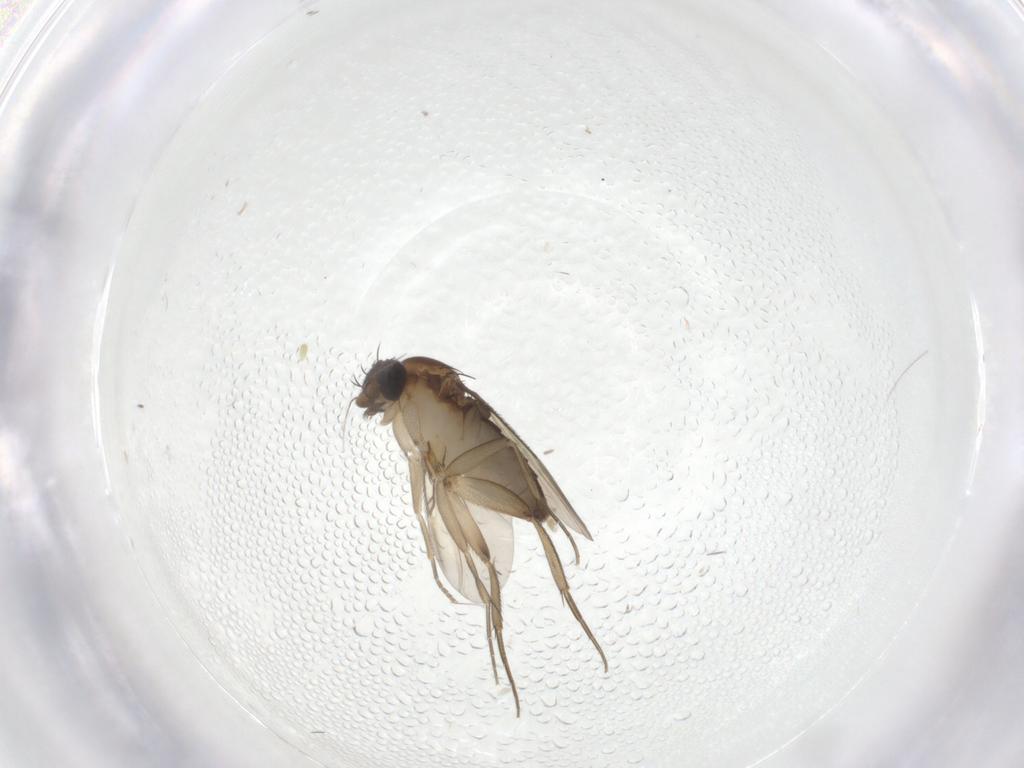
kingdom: Animalia
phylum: Arthropoda
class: Insecta
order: Diptera
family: Phoridae
